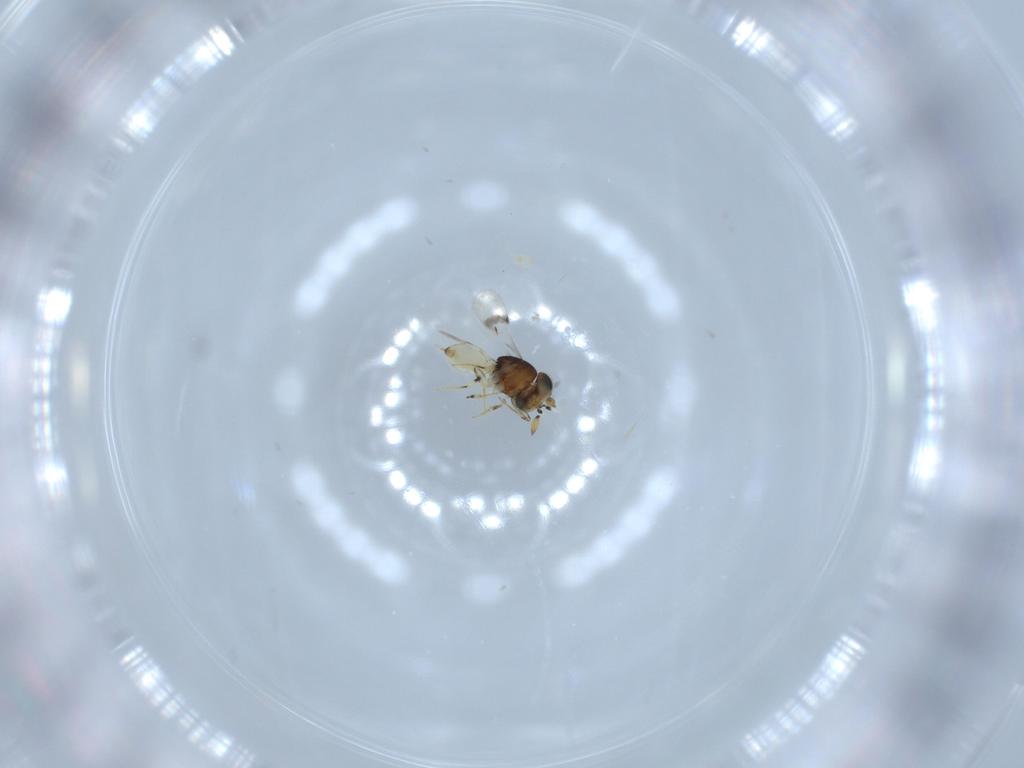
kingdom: Animalia
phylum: Arthropoda
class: Insecta
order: Hymenoptera
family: Scelionidae
